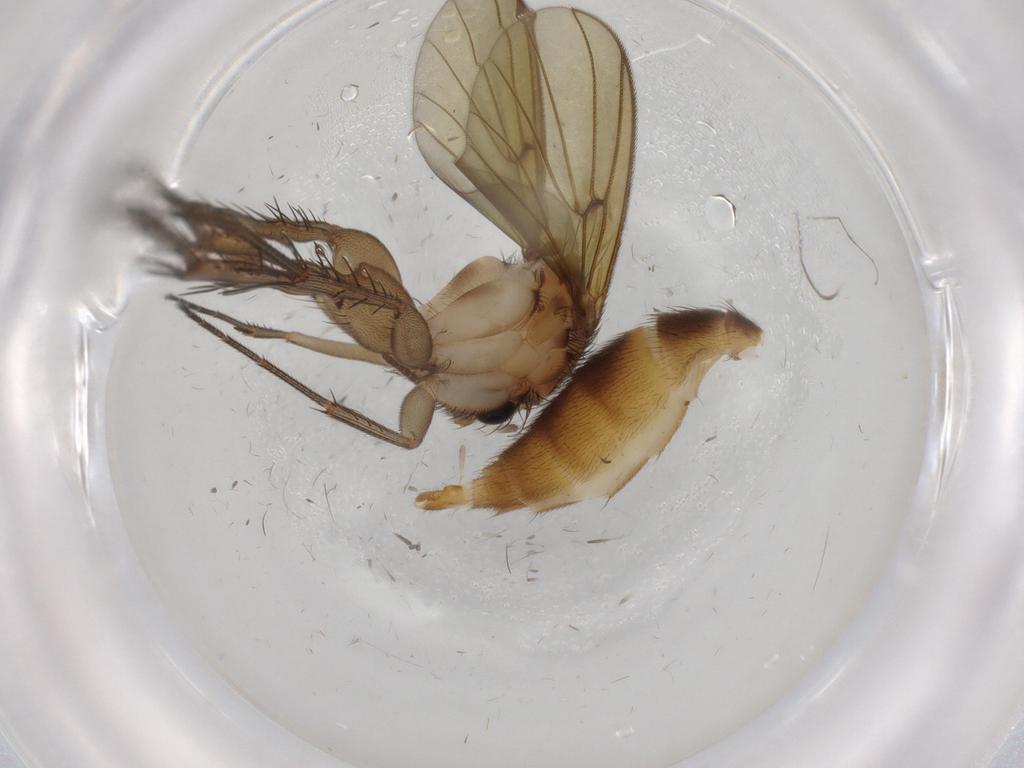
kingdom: Animalia
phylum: Arthropoda
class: Insecta
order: Diptera
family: Mycetophilidae
